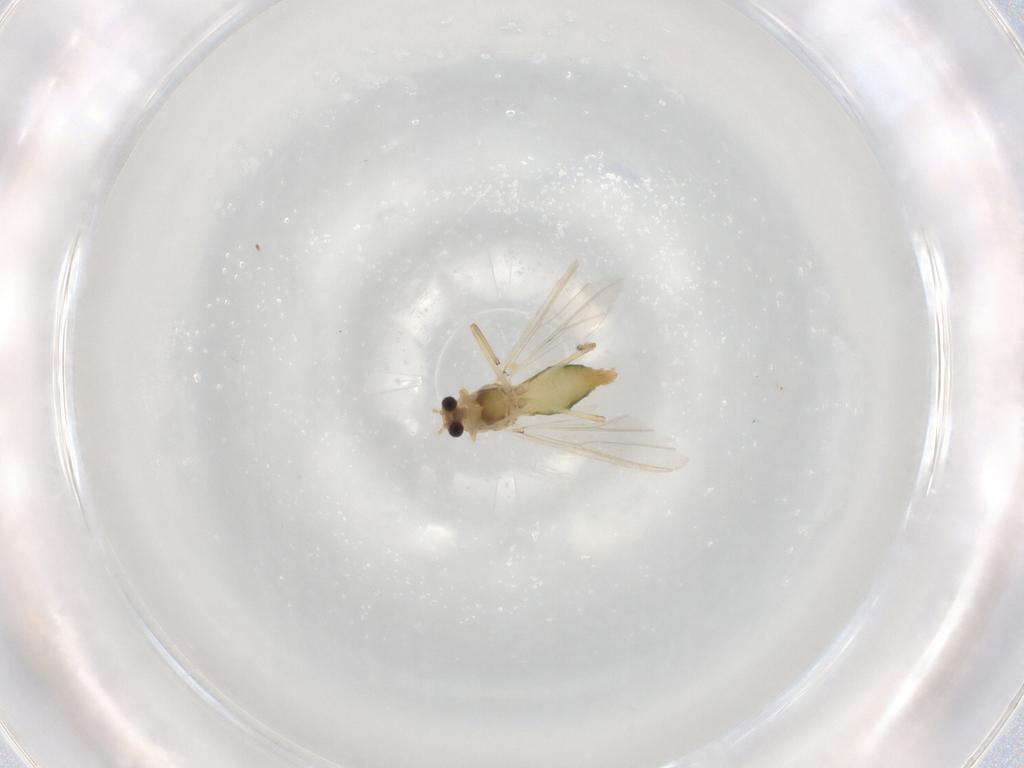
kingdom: Animalia
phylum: Arthropoda
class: Insecta
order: Diptera
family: Chironomidae
